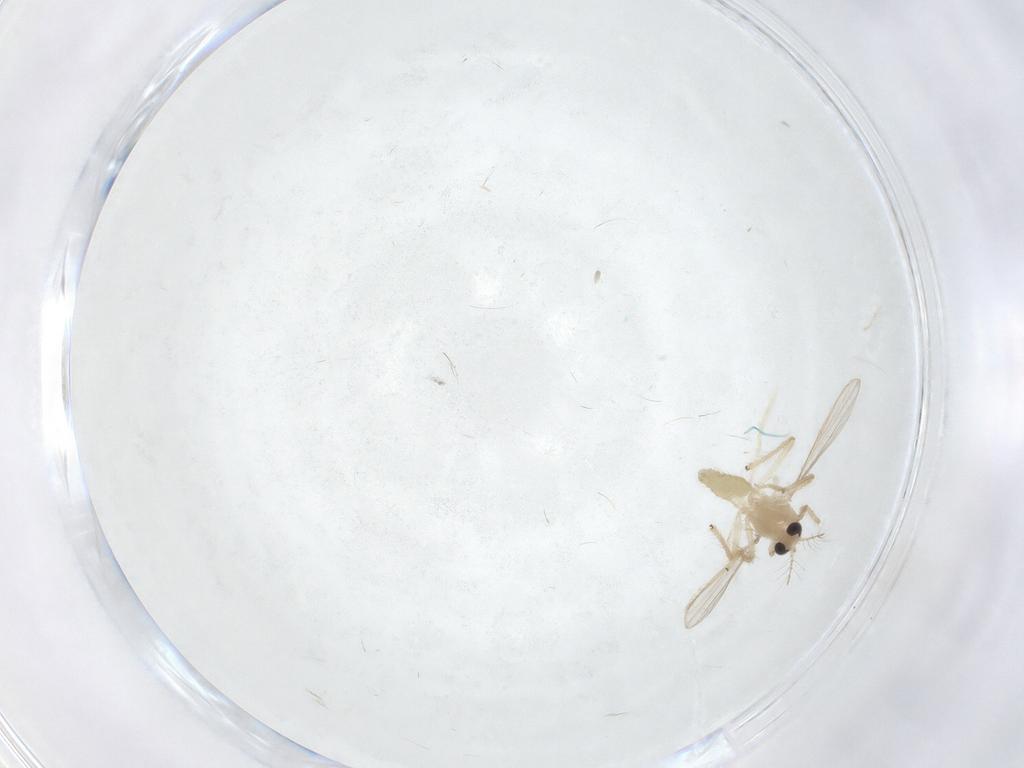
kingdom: Animalia
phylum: Arthropoda
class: Insecta
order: Diptera
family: Chironomidae
